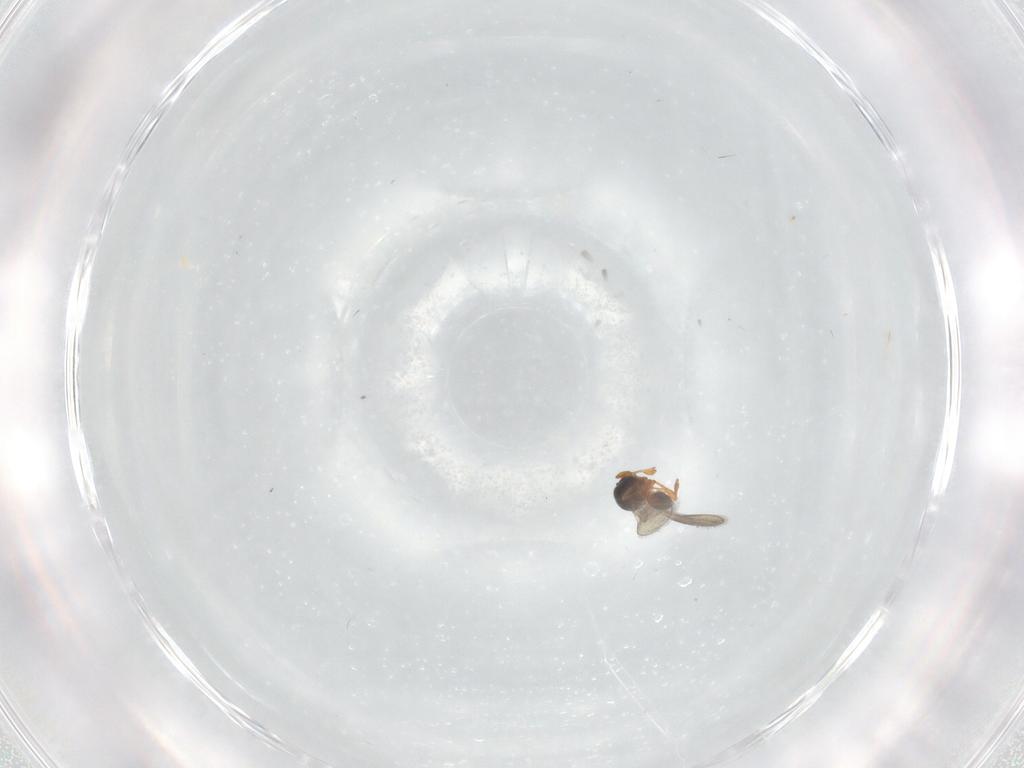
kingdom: Animalia
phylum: Arthropoda
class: Insecta
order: Hymenoptera
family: Platygastridae
